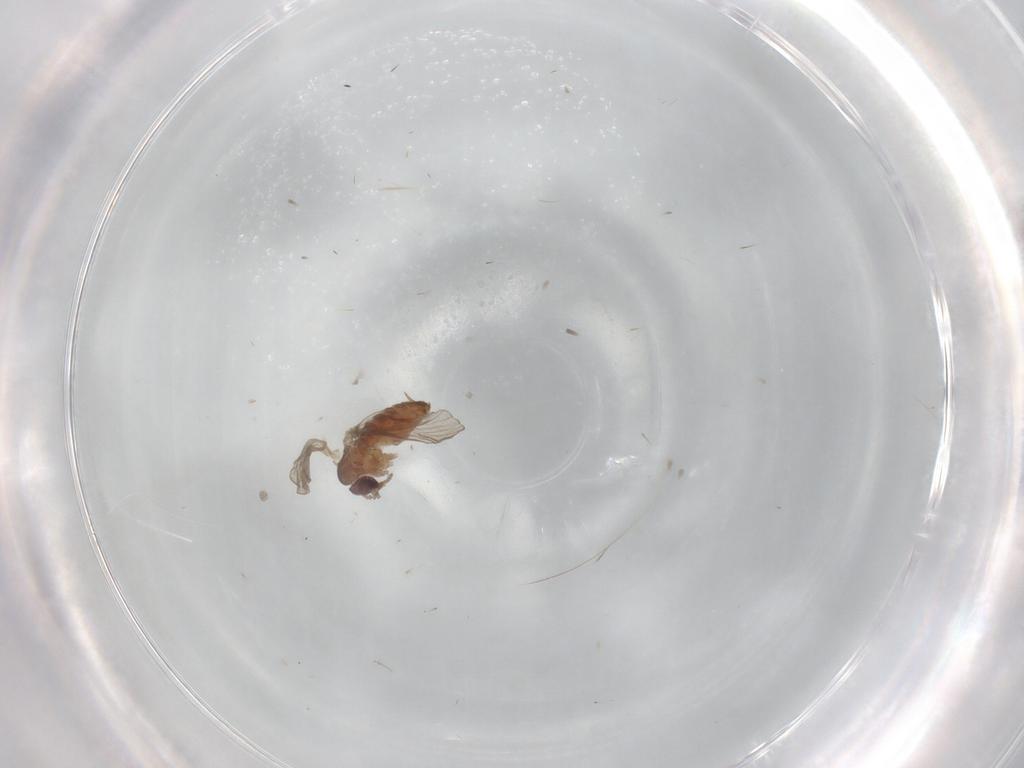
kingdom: Animalia
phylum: Arthropoda
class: Insecta
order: Diptera
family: Psychodidae
